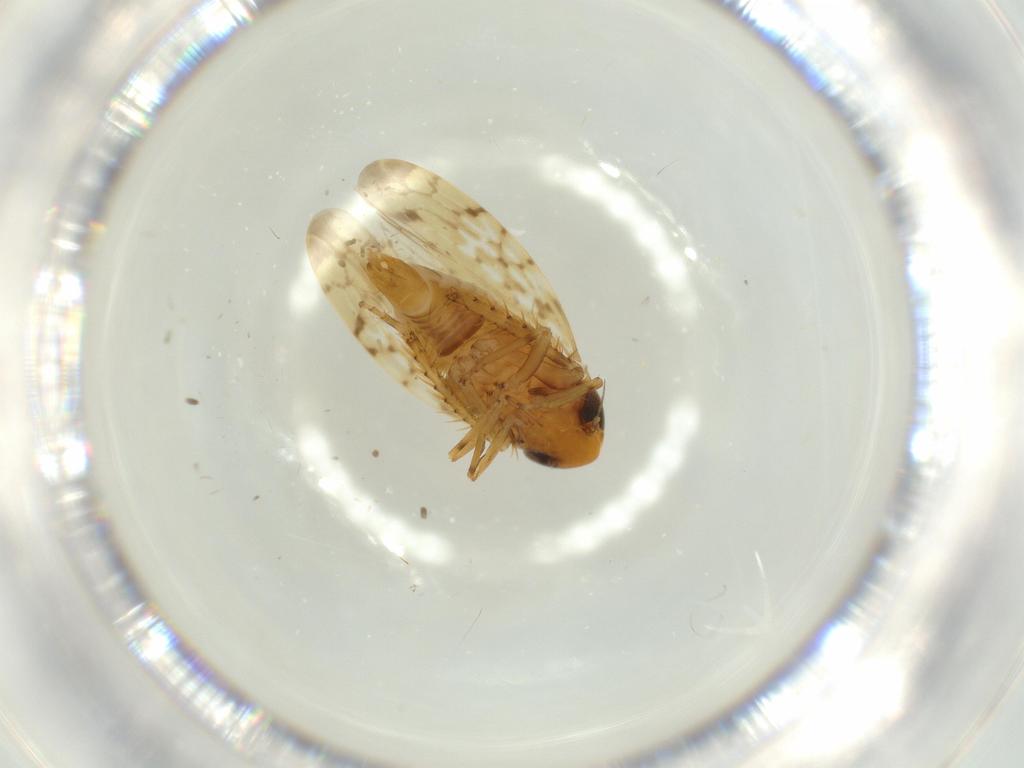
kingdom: Animalia
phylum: Arthropoda
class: Insecta
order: Hemiptera
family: Cicadellidae
